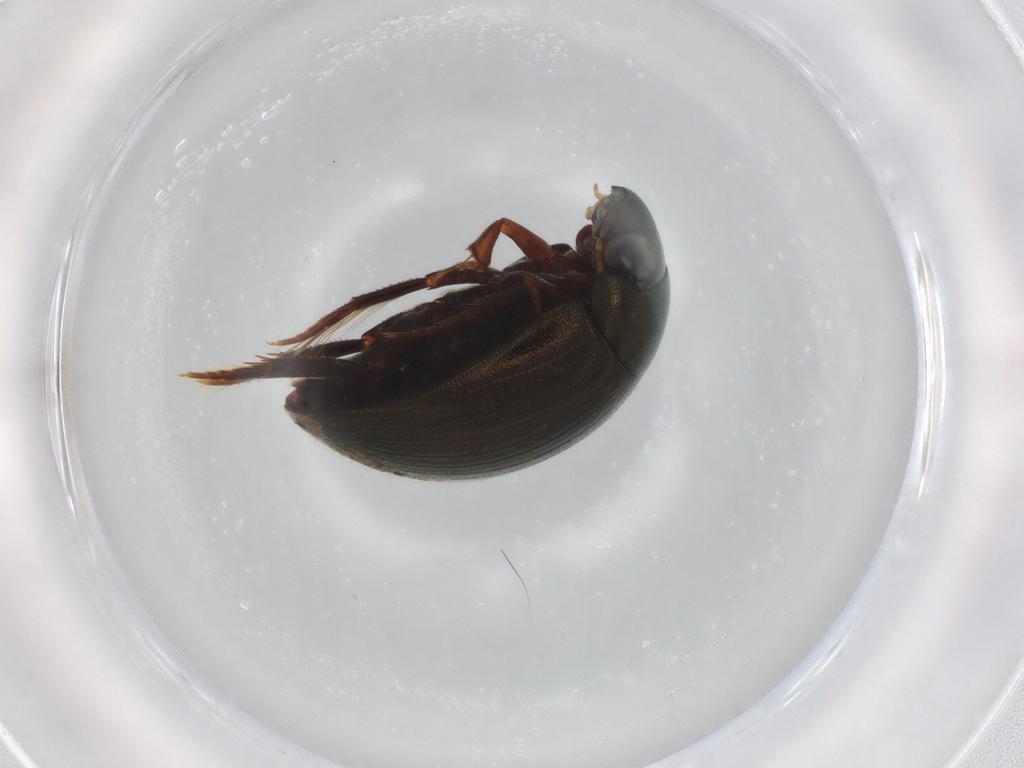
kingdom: Animalia
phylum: Arthropoda
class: Insecta
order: Coleoptera
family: Hydrophilidae
